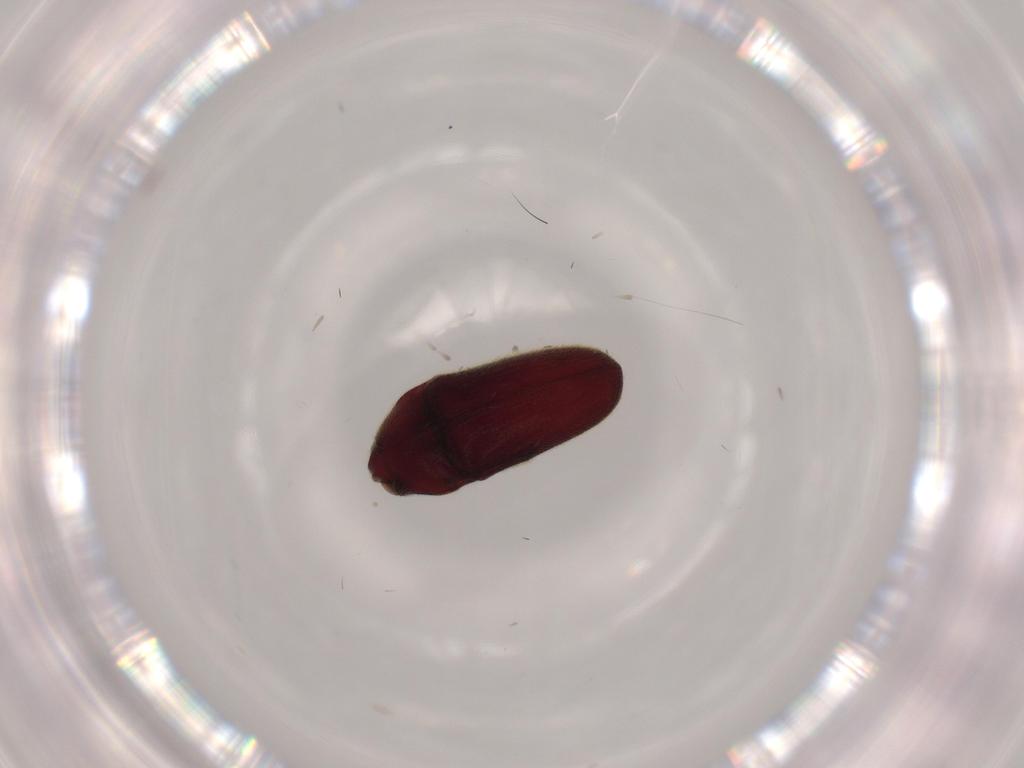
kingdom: Animalia
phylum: Arthropoda
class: Insecta
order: Coleoptera
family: Throscidae
